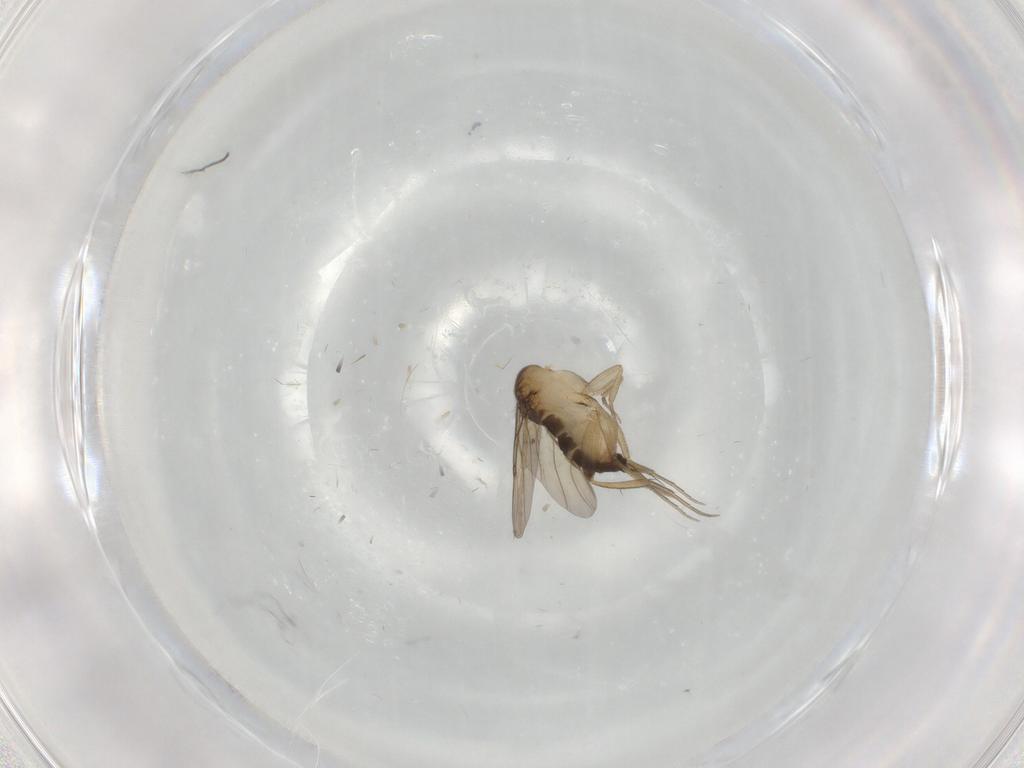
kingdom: Animalia
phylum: Arthropoda
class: Insecta
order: Diptera
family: Phoridae
